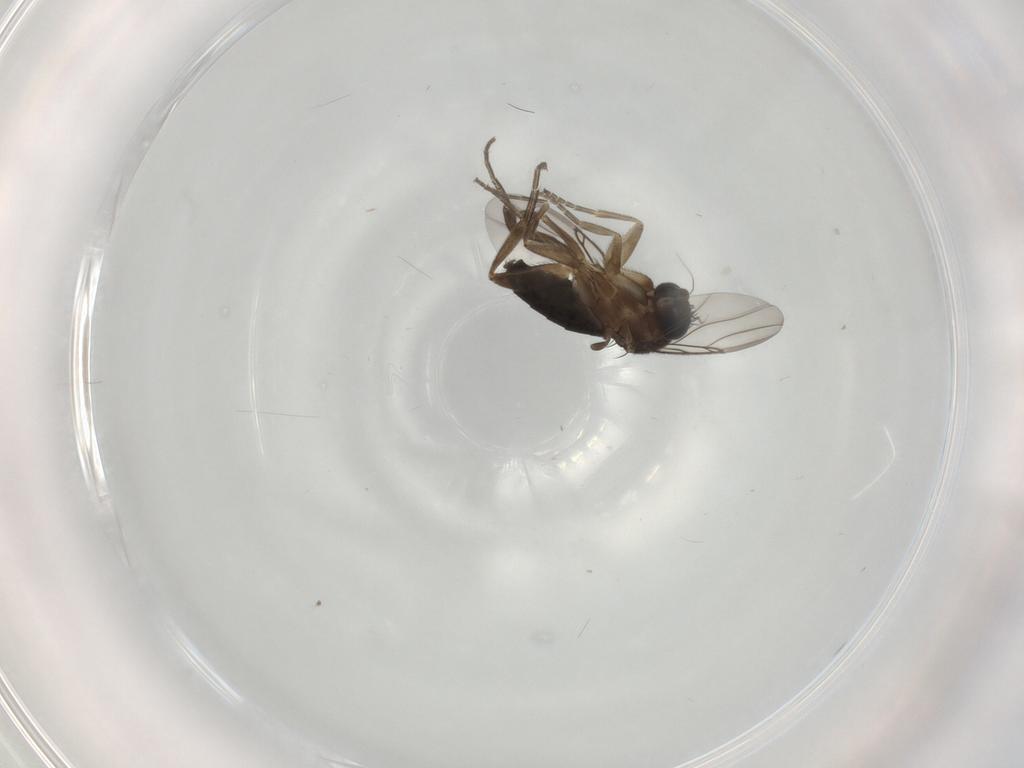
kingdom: Animalia
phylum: Arthropoda
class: Insecta
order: Diptera
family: Phoridae
